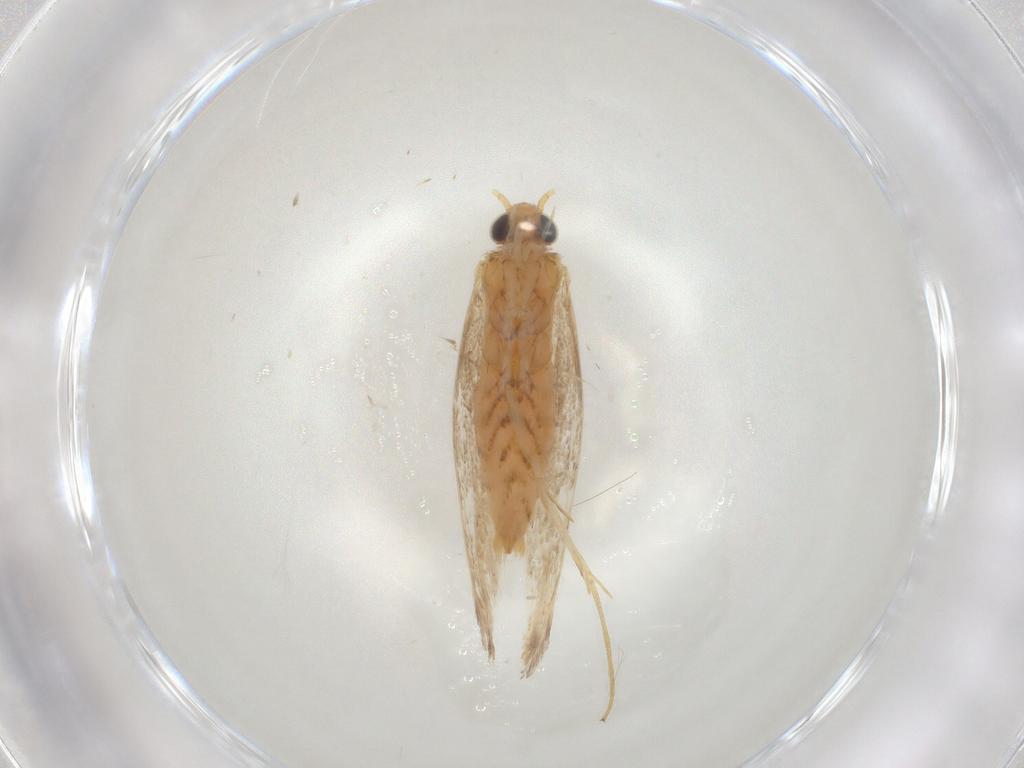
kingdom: Animalia
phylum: Arthropoda
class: Insecta
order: Lepidoptera
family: Gracillariidae
